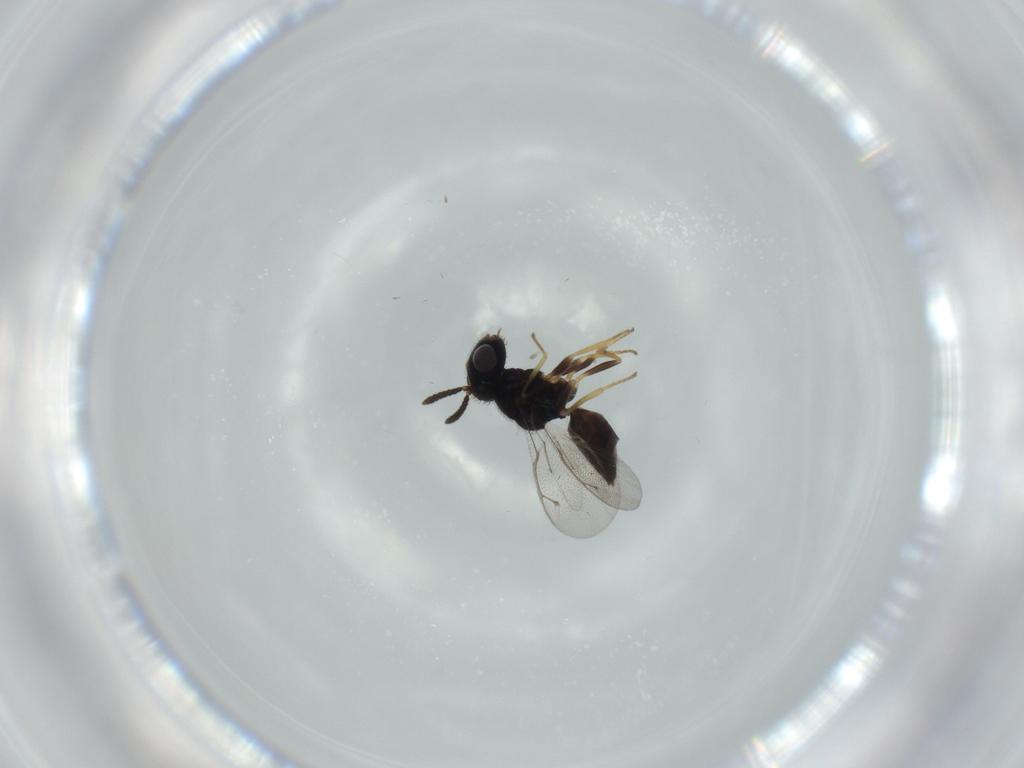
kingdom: Animalia
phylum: Arthropoda
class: Insecta
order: Hymenoptera
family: Pteromalidae
